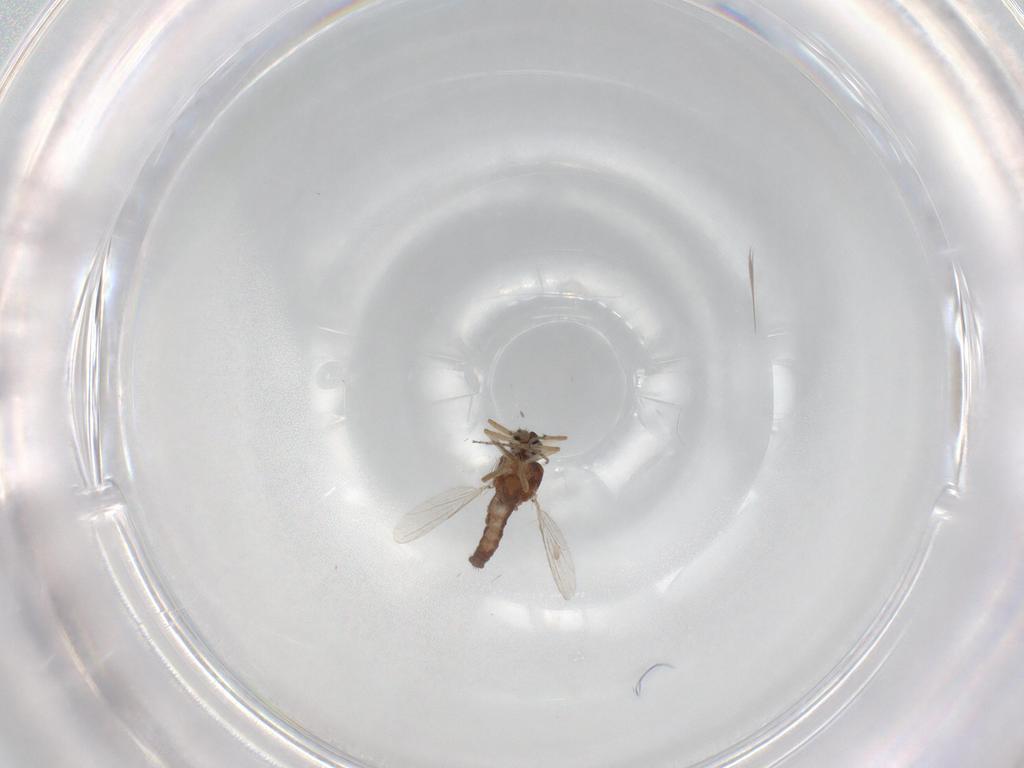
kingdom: Animalia
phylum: Arthropoda
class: Insecta
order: Diptera
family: Ceratopogonidae
